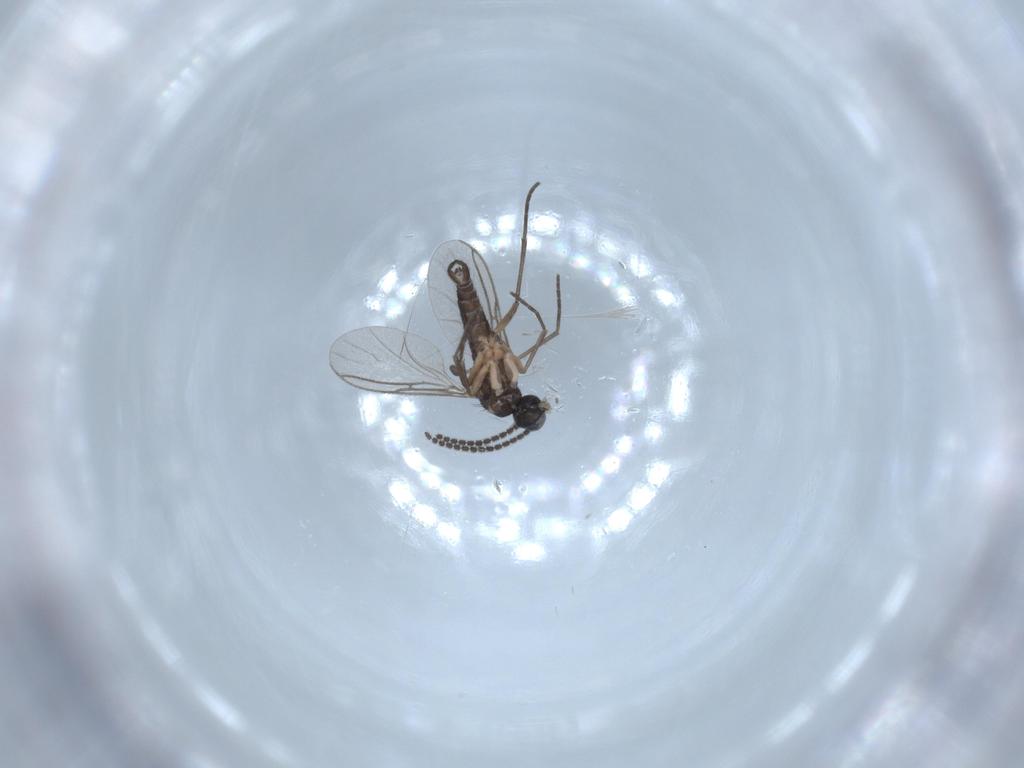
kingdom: Animalia
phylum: Arthropoda
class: Insecta
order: Diptera
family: Sciaridae
